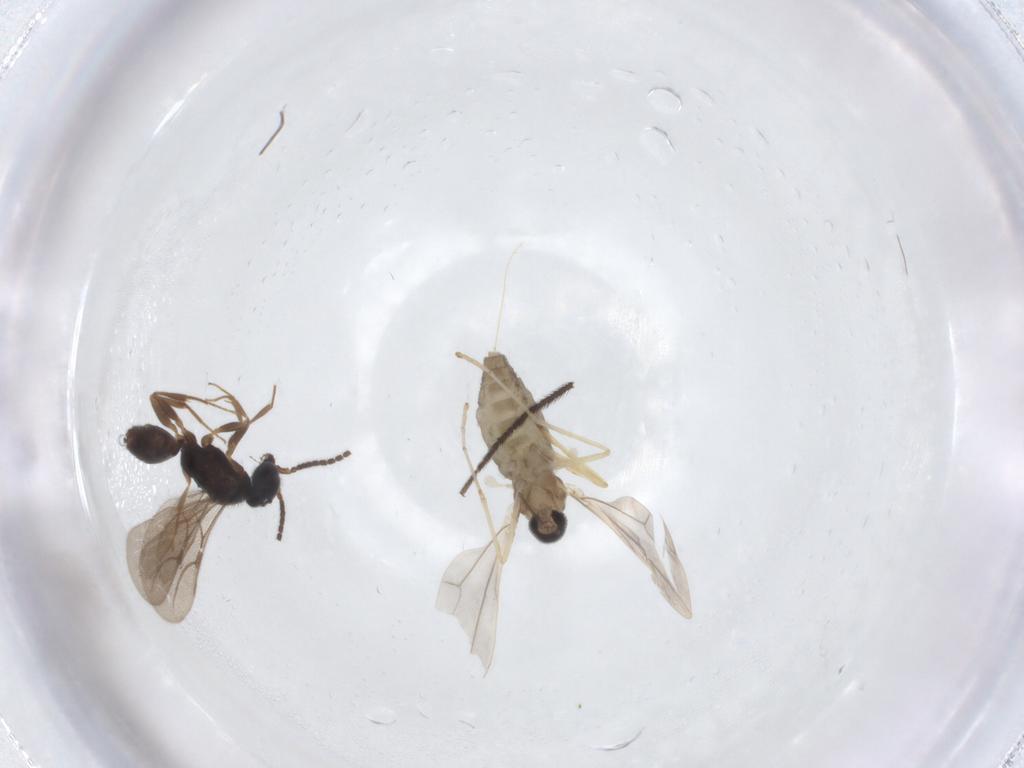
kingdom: Animalia
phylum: Arthropoda
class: Insecta
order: Diptera
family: Cecidomyiidae
